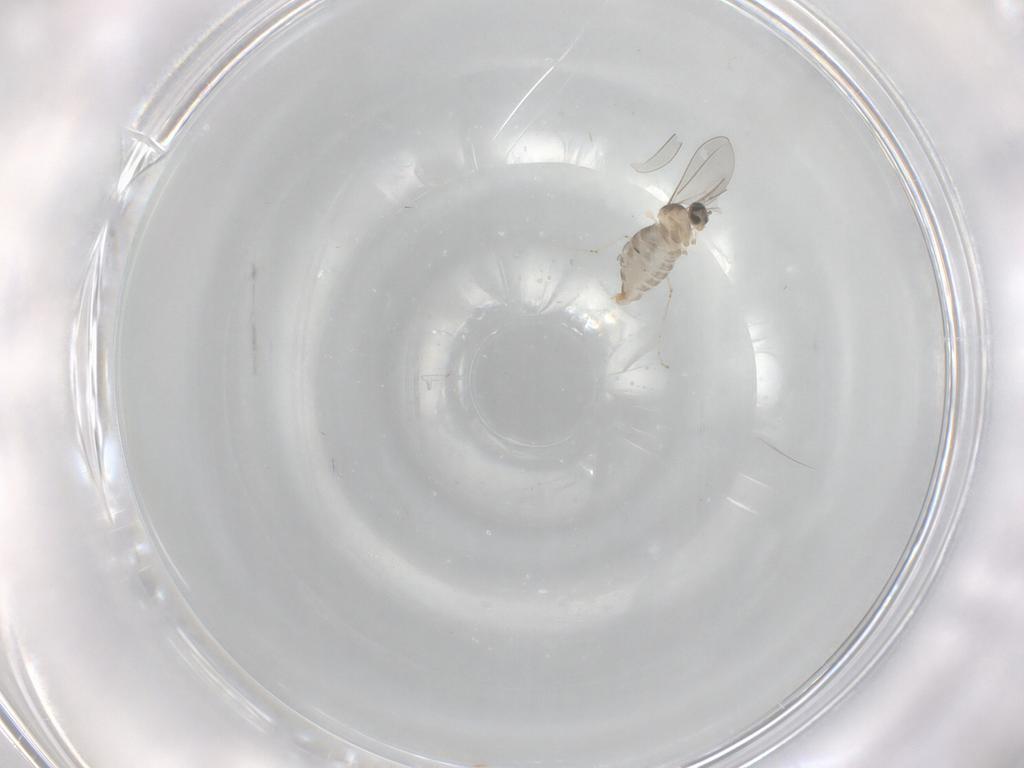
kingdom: Animalia
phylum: Arthropoda
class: Insecta
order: Diptera
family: Cecidomyiidae
